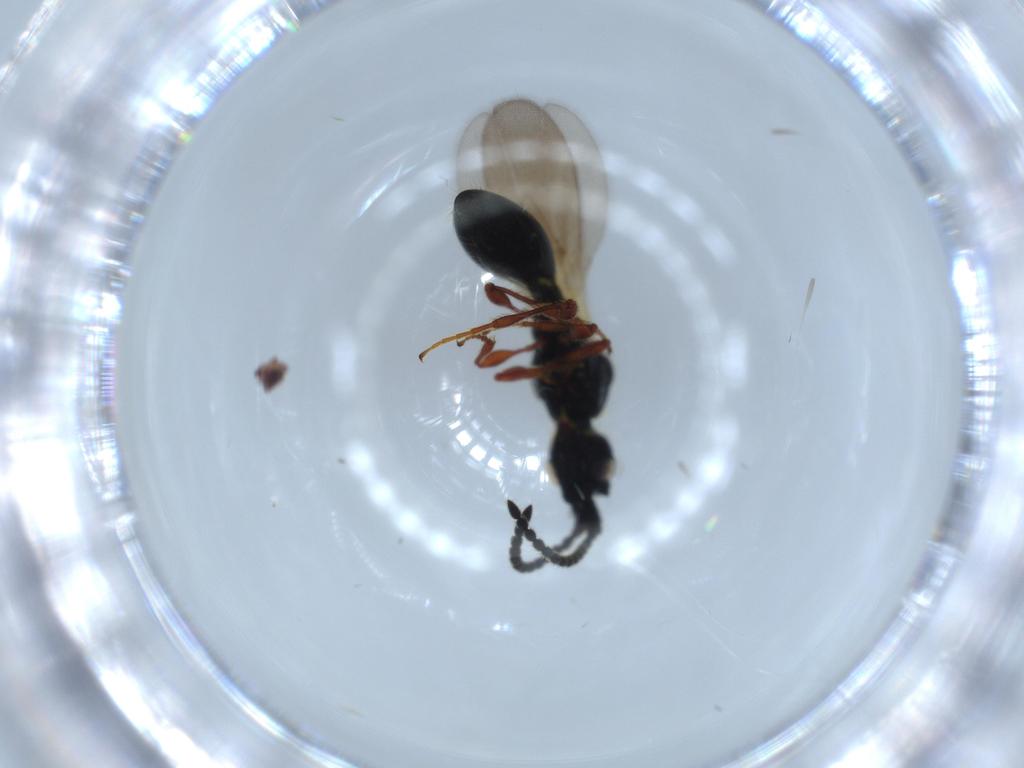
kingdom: Animalia
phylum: Arthropoda
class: Insecta
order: Hymenoptera
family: Diapriidae
